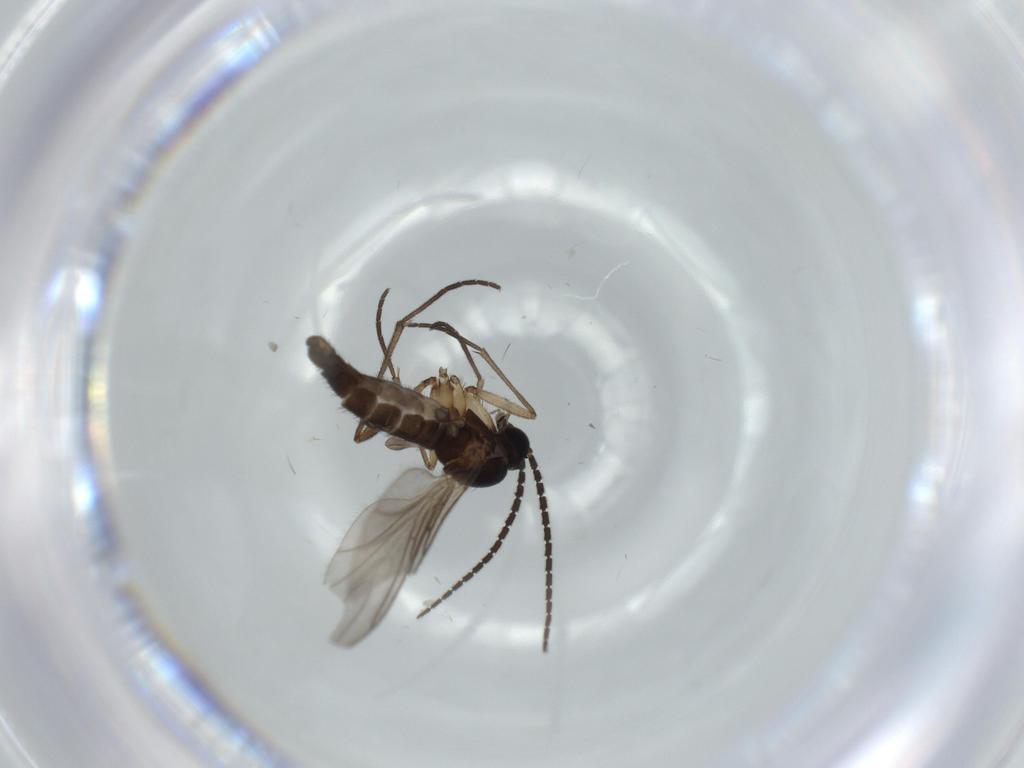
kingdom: Animalia
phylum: Arthropoda
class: Insecta
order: Diptera
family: Sciaridae
